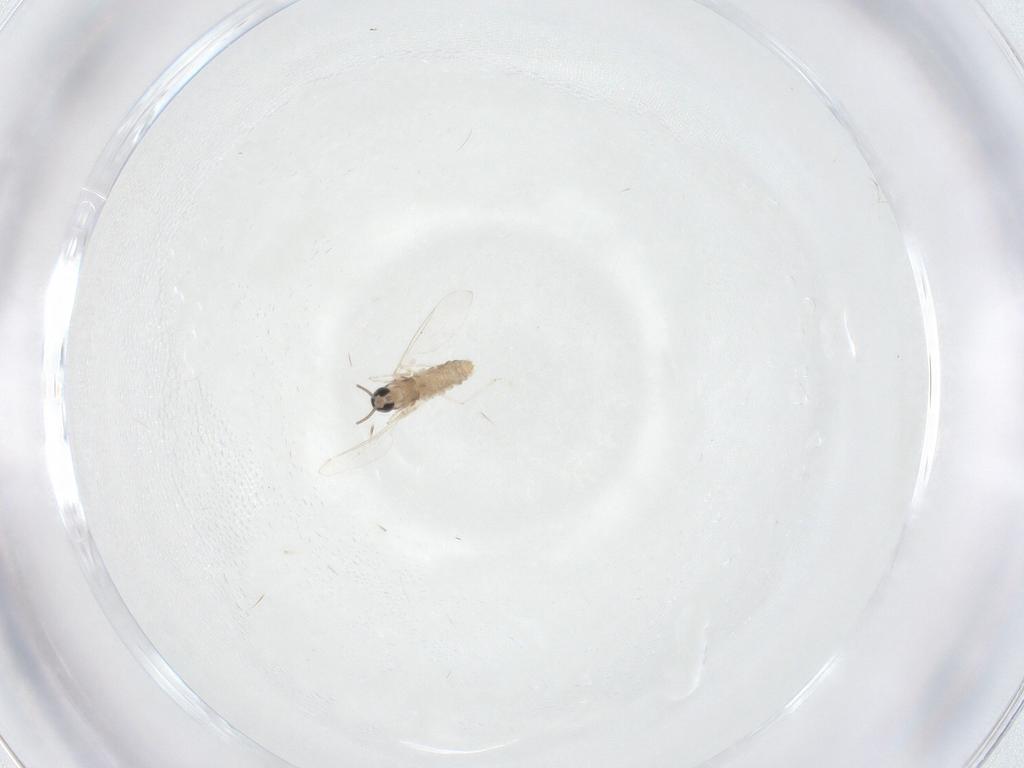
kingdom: Animalia
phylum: Arthropoda
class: Insecta
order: Diptera
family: Cecidomyiidae
